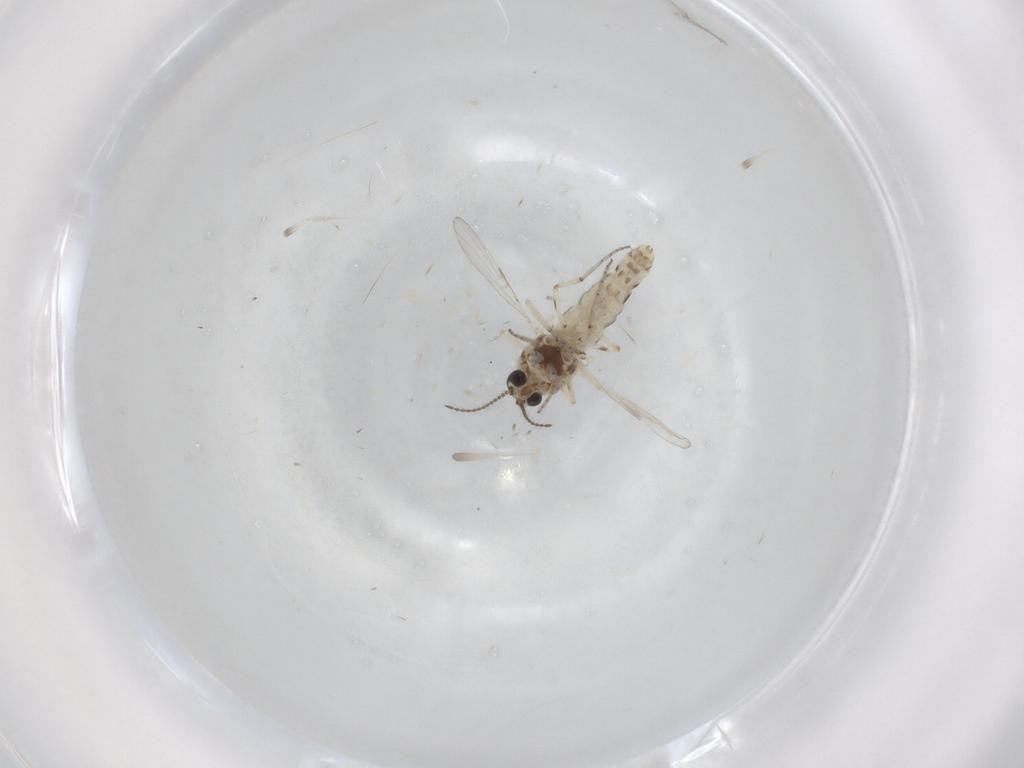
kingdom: Animalia
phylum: Arthropoda
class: Insecta
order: Diptera
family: Ceratopogonidae
